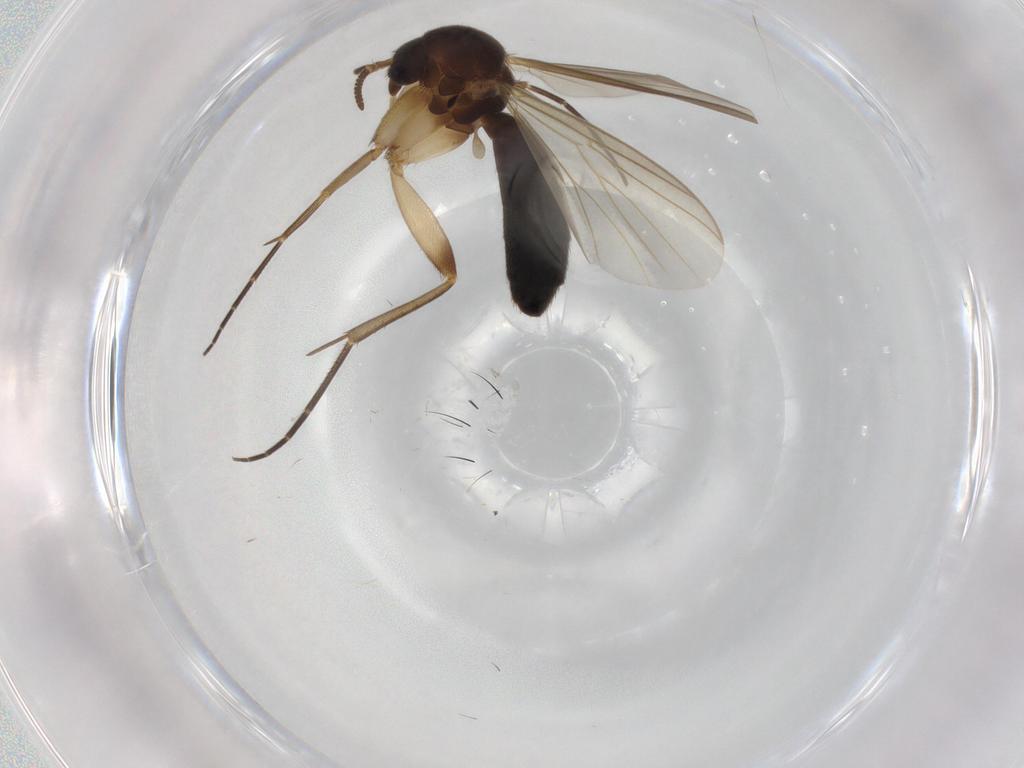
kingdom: Animalia
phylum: Arthropoda
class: Insecta
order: Diptera
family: Mycetophilidae
